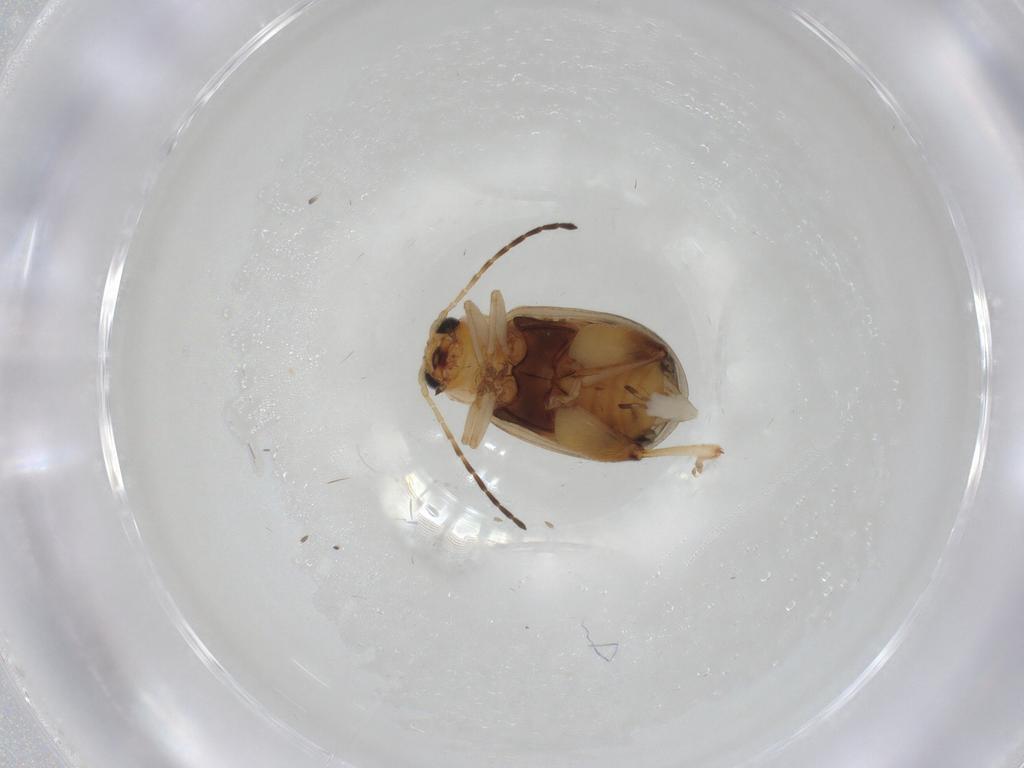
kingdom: Animalia
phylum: Arthropoda
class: Insecta
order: Coleoptera
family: Chrysomelidae
